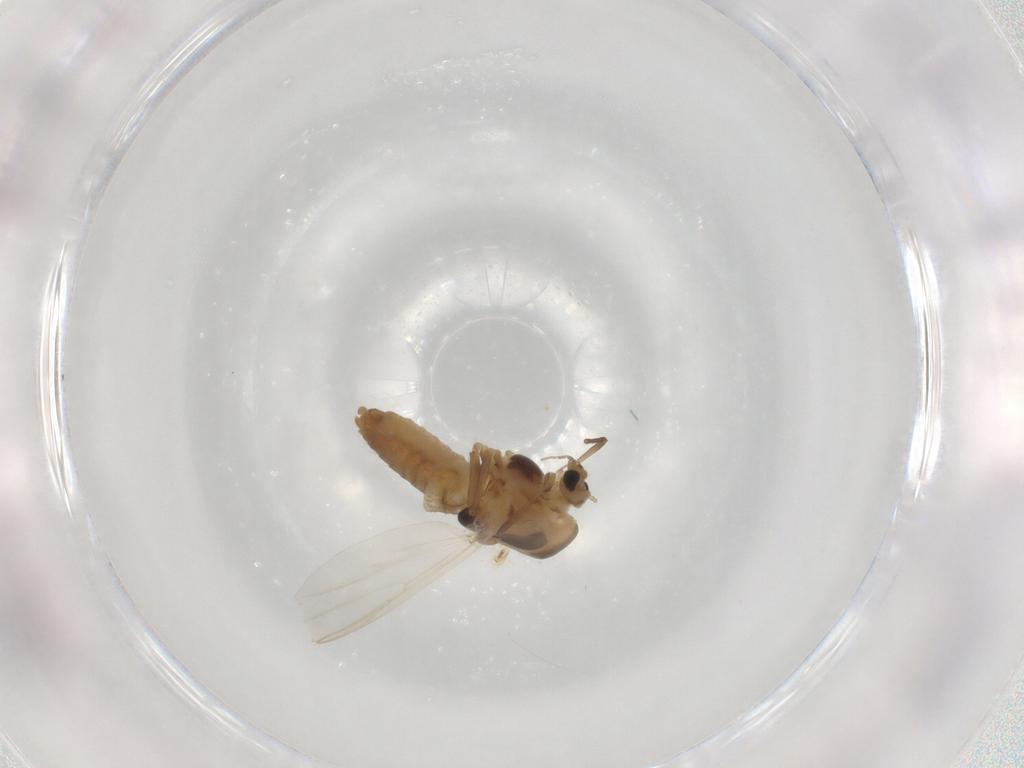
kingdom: Animalia
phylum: Arthropoda
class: Insecta
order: Diptera
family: Chironomidae
